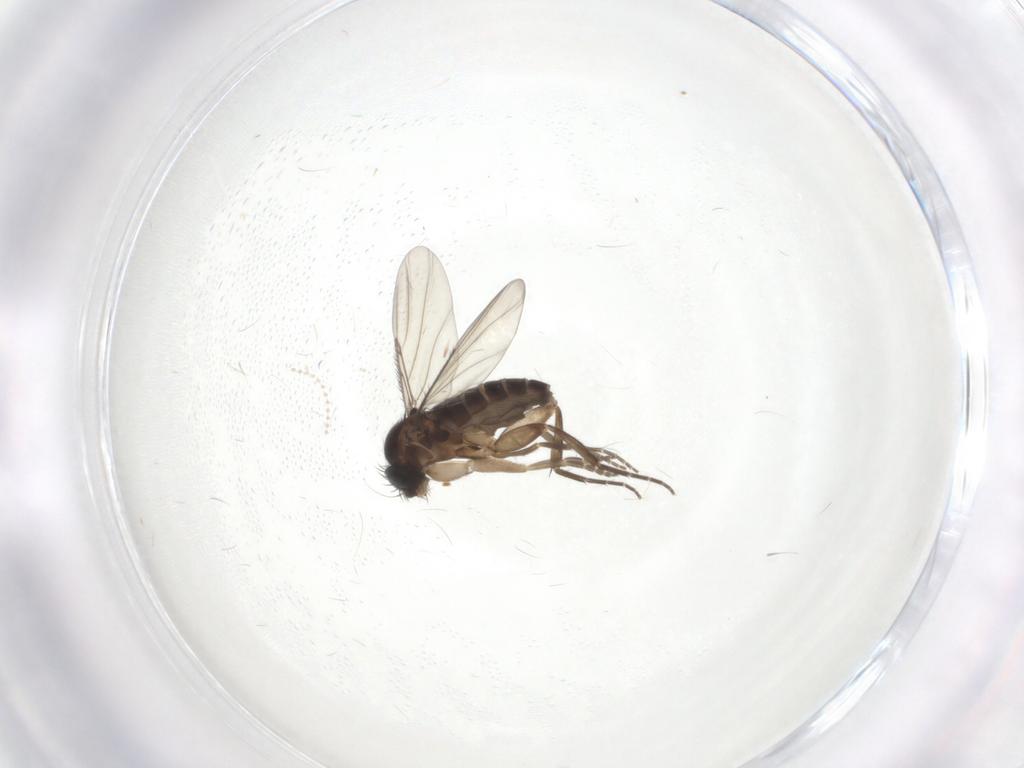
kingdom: Animalia
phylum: Arthropoda
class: Insecta
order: Diptera
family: Phoridae
